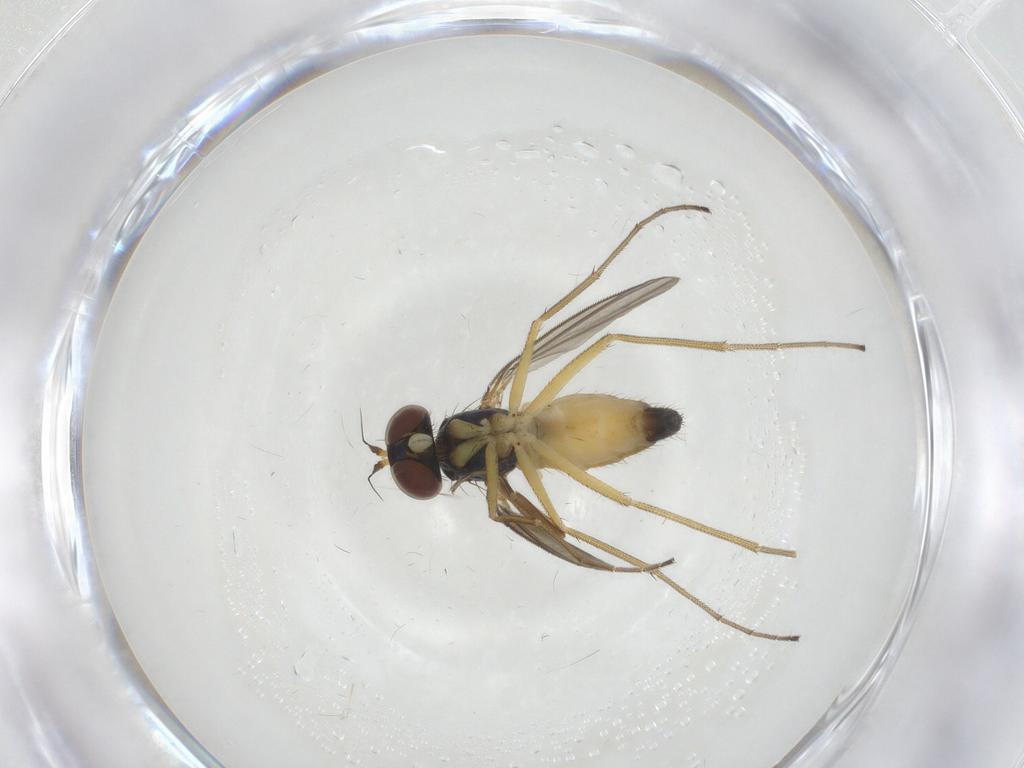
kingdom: Animalia
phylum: Arthropoda
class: Insecta
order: Diptera
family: Dolichopodidae
